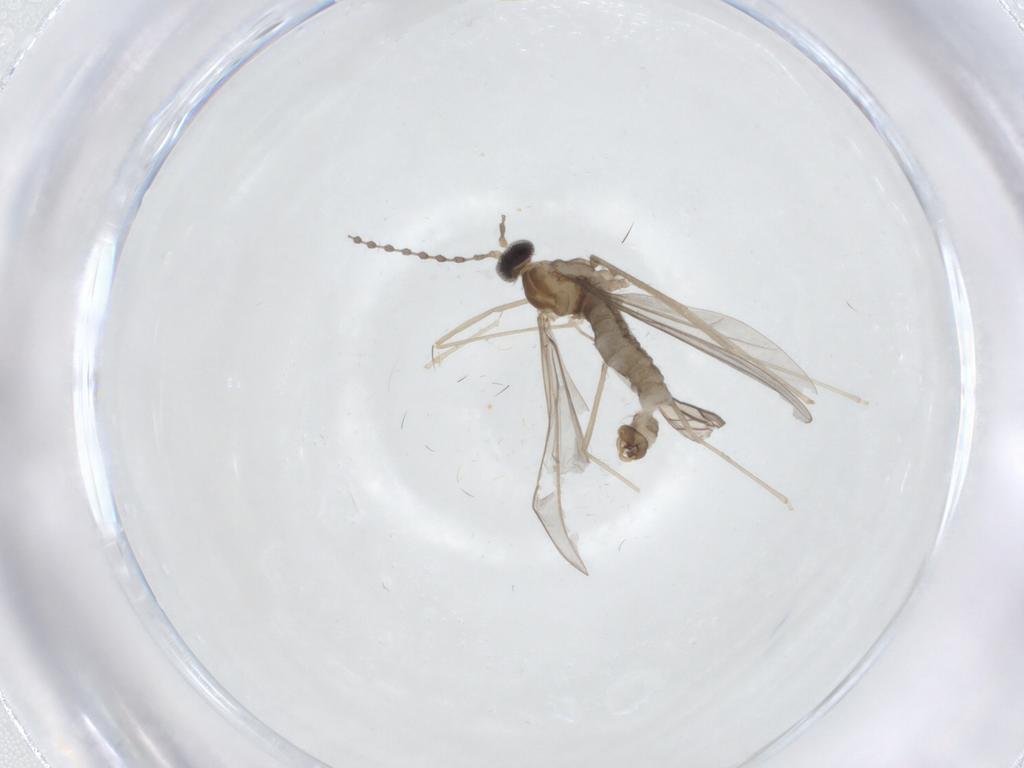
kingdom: Animalia
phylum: Arthropoda
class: Insecta
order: Diptera
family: Cecidomyiidae
